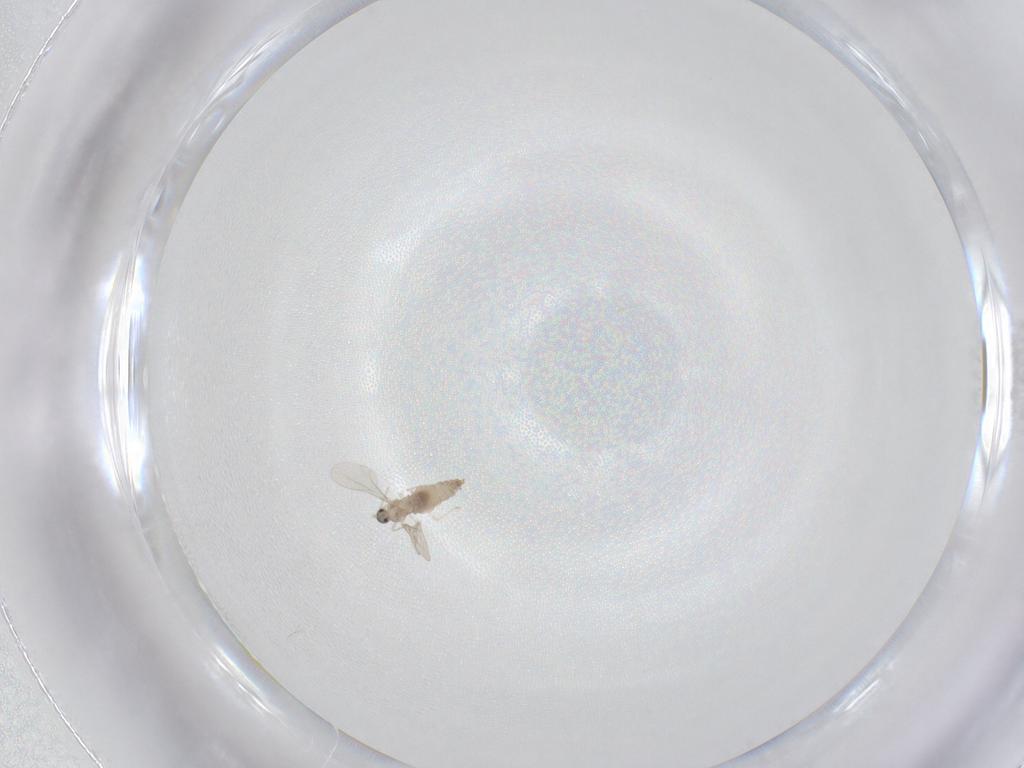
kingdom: Animalia
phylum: Arthropoda
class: Insecta
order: Diptera
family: Cecidomyiidae
